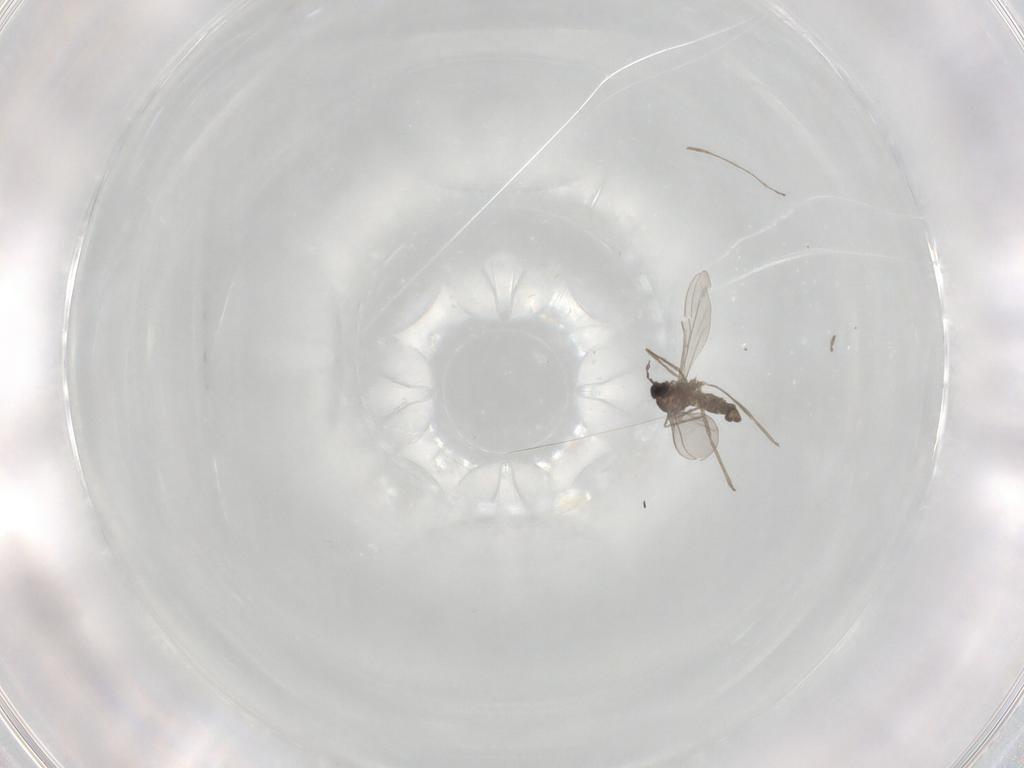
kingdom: Animalia
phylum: Arthropoda
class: Insecta
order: Diptera
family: Cecidomyiidae
